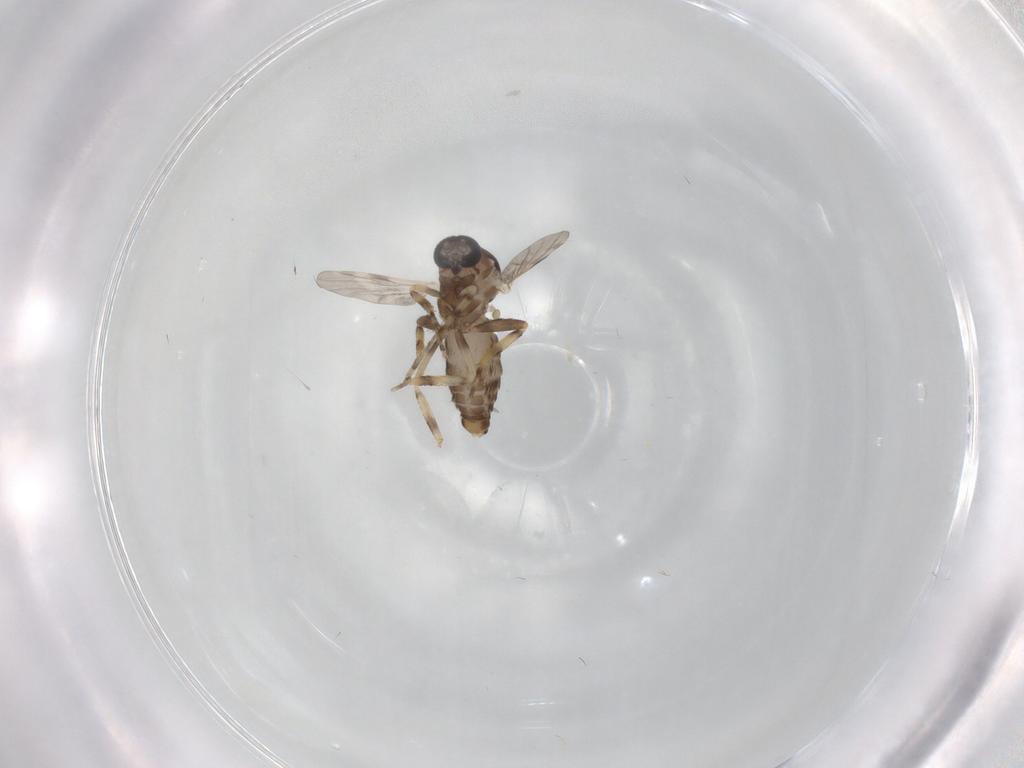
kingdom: Animalia
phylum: Arthropoda
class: Insecta
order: Diptera
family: Ceratopogonidae
